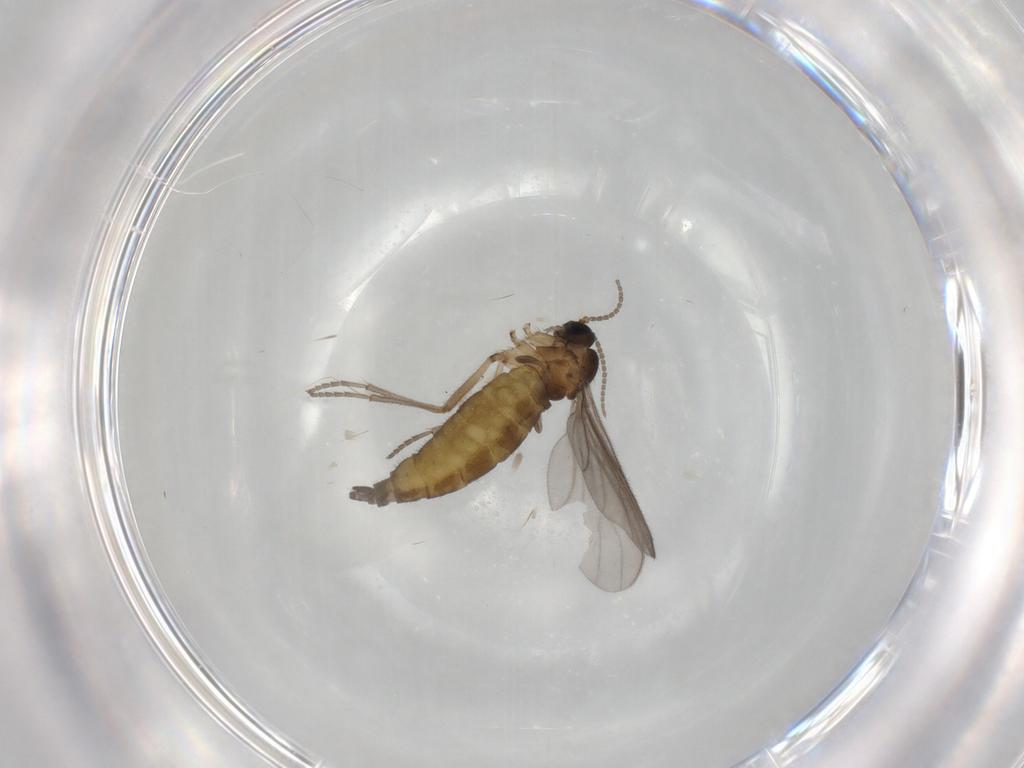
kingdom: Animalia
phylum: Arthropoda
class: Insecta
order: Diptera
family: Sciaridae
